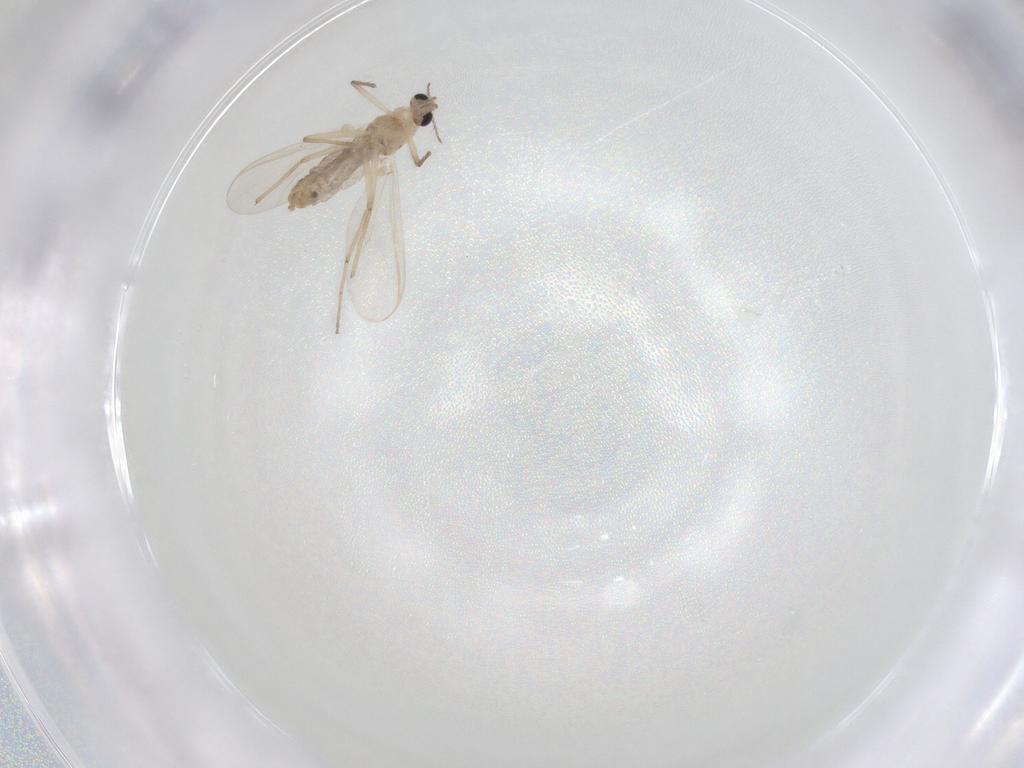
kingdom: Animalia
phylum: Arthropoda
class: Insecta
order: Diptera
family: Chironomidae
